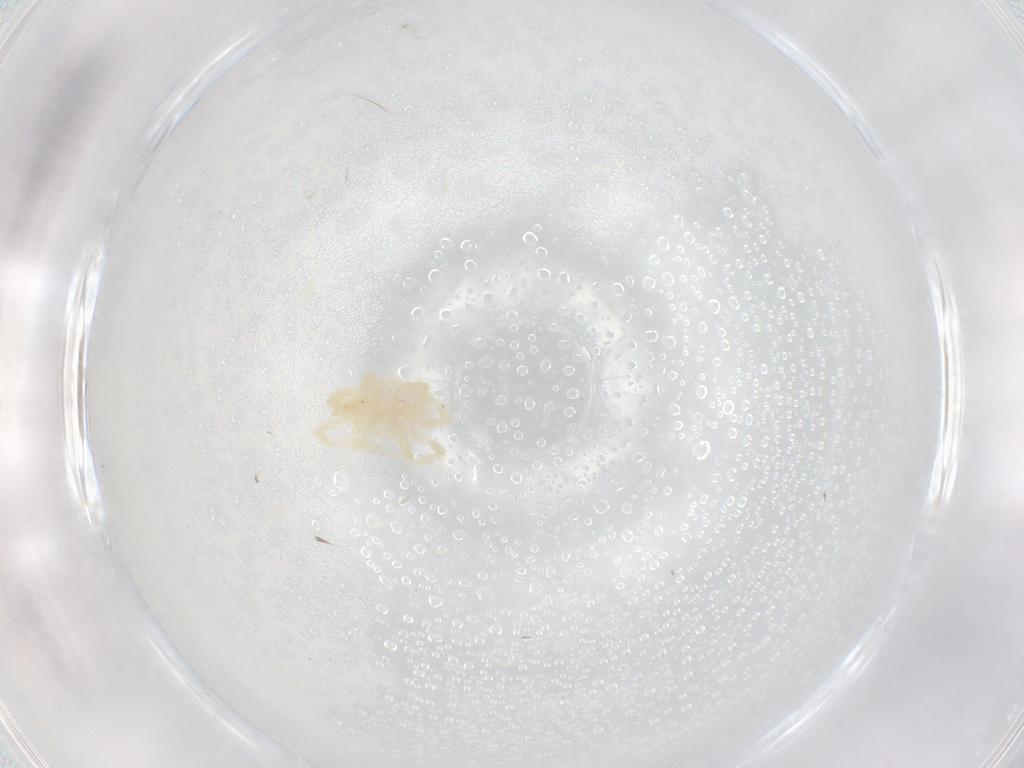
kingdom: Animalia
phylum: Arthropoda
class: Arachnida
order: Trombidiformes
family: Erythraeidae
